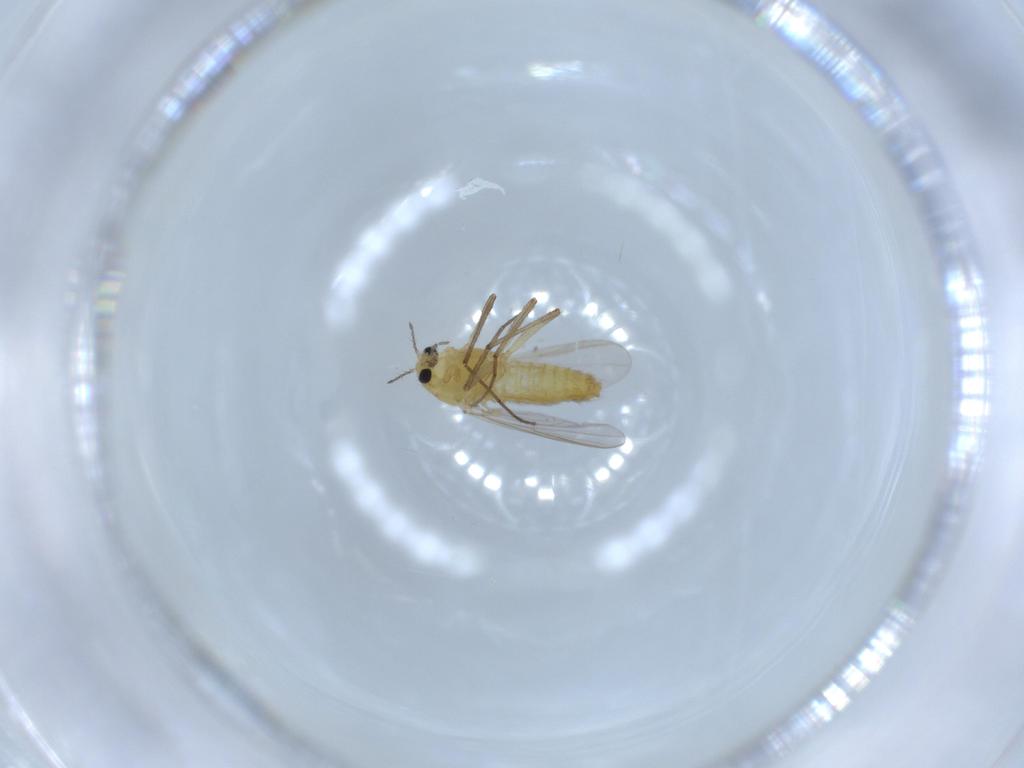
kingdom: Animalia
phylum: Arthropoda
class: Insecta
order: Diptera
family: Chironomidae
